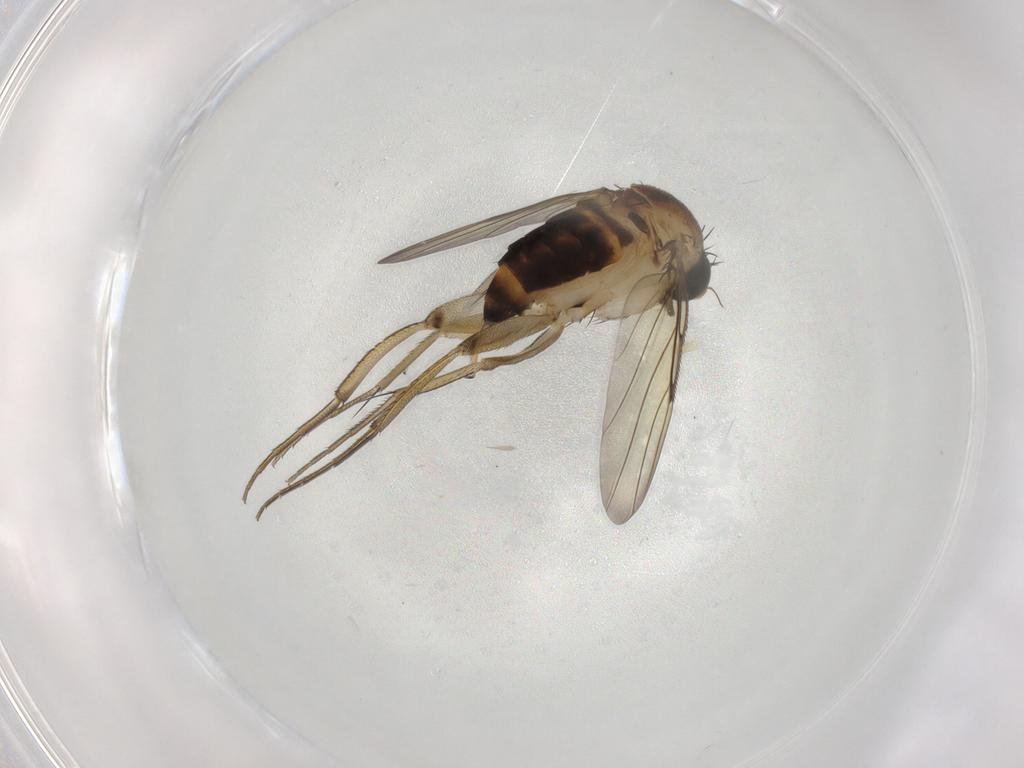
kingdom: Animalia
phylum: Arthropoda
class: Insecta
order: Diptera
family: Phoridae
